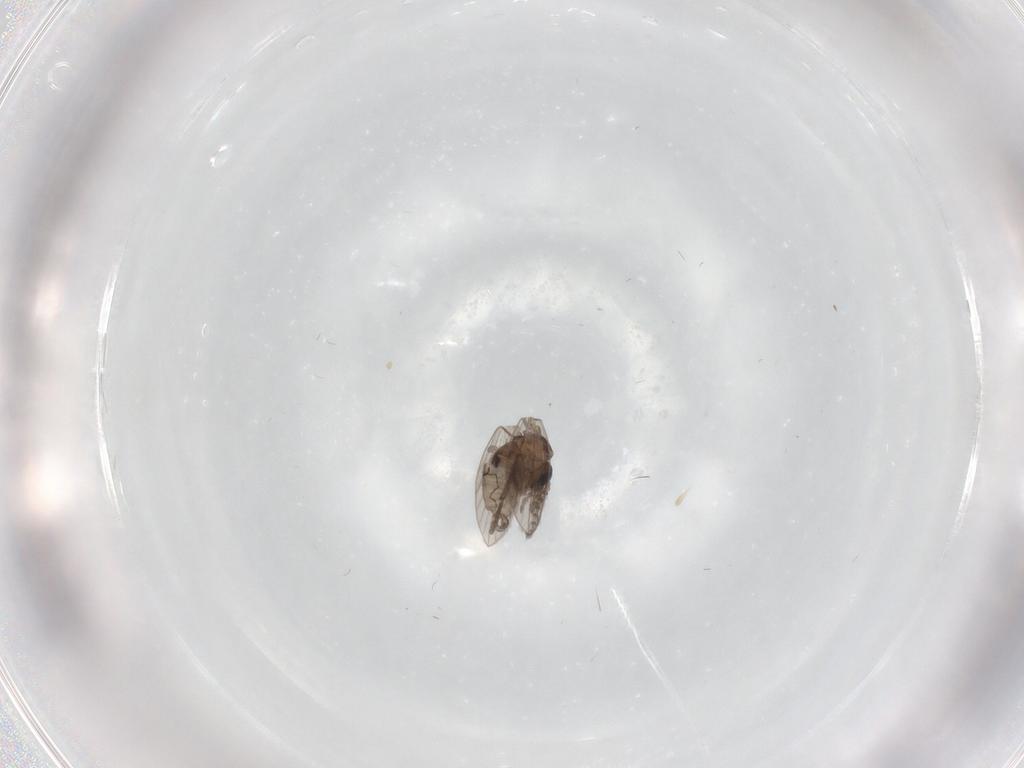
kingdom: Animalia
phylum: Arthropoda
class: Insecta
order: Diptera
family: Psychodidae
